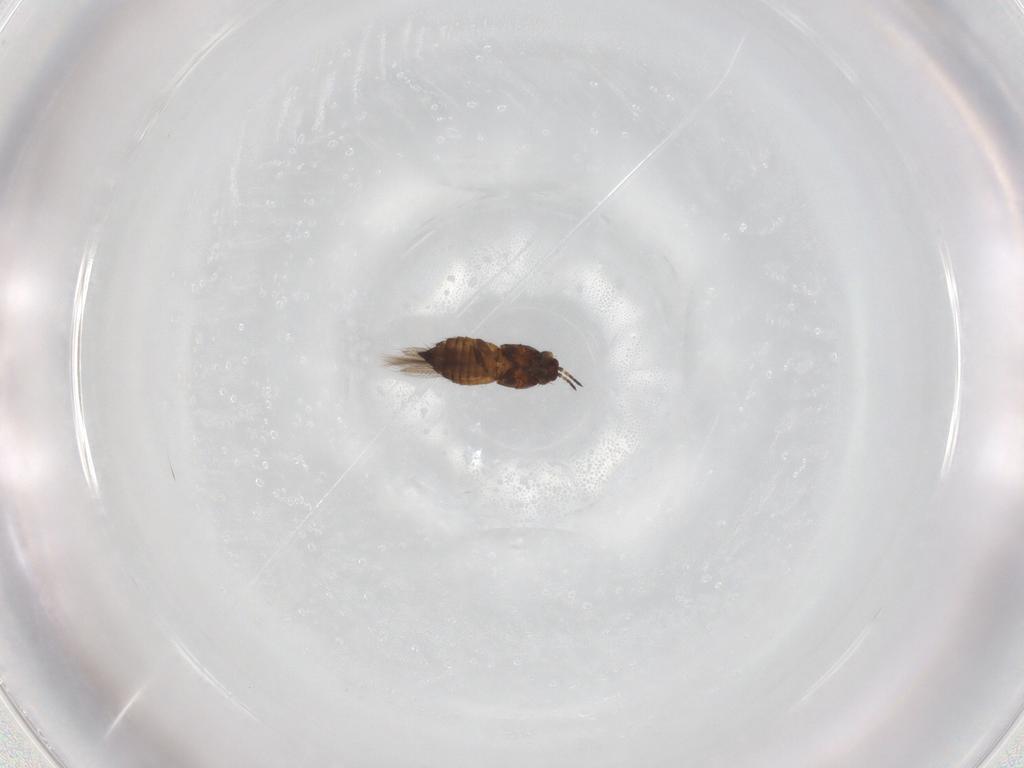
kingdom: Animalia
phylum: Arthropoda
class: Insecta
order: Thysanoptera
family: Thripidae
